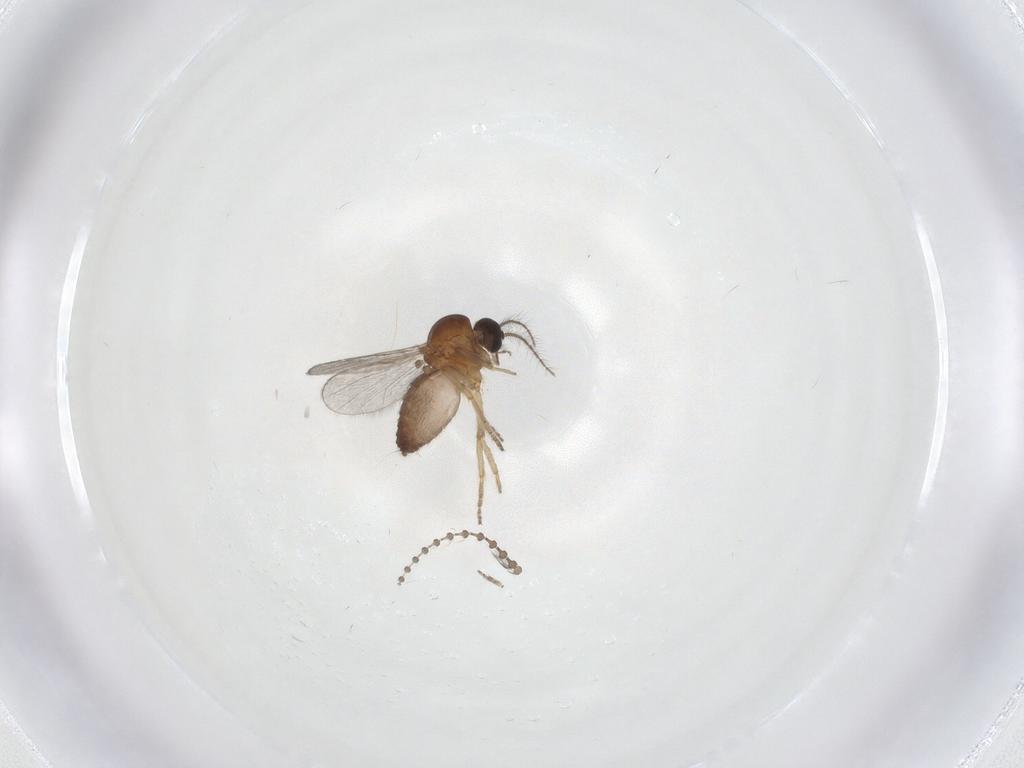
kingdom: Animalia
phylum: Arthropoda
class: Insecta
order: Diptera
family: Ceratopogonidae
